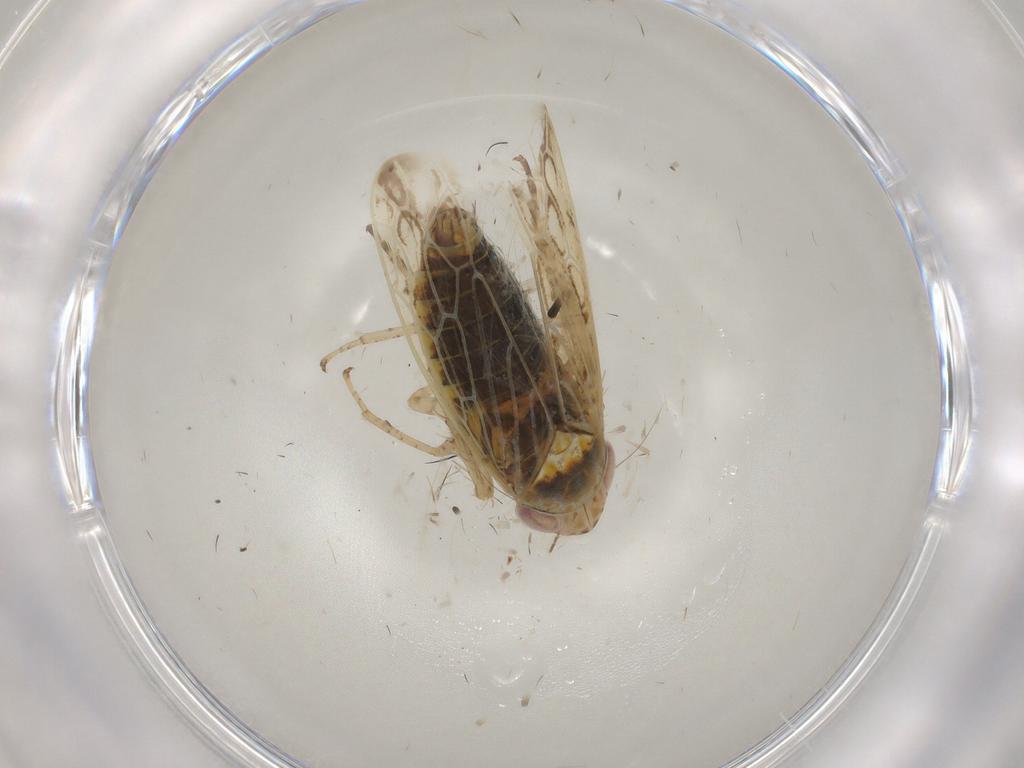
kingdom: Animalia
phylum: Arthropoda
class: Insecta
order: Hemiptera
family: Cicadellidae
